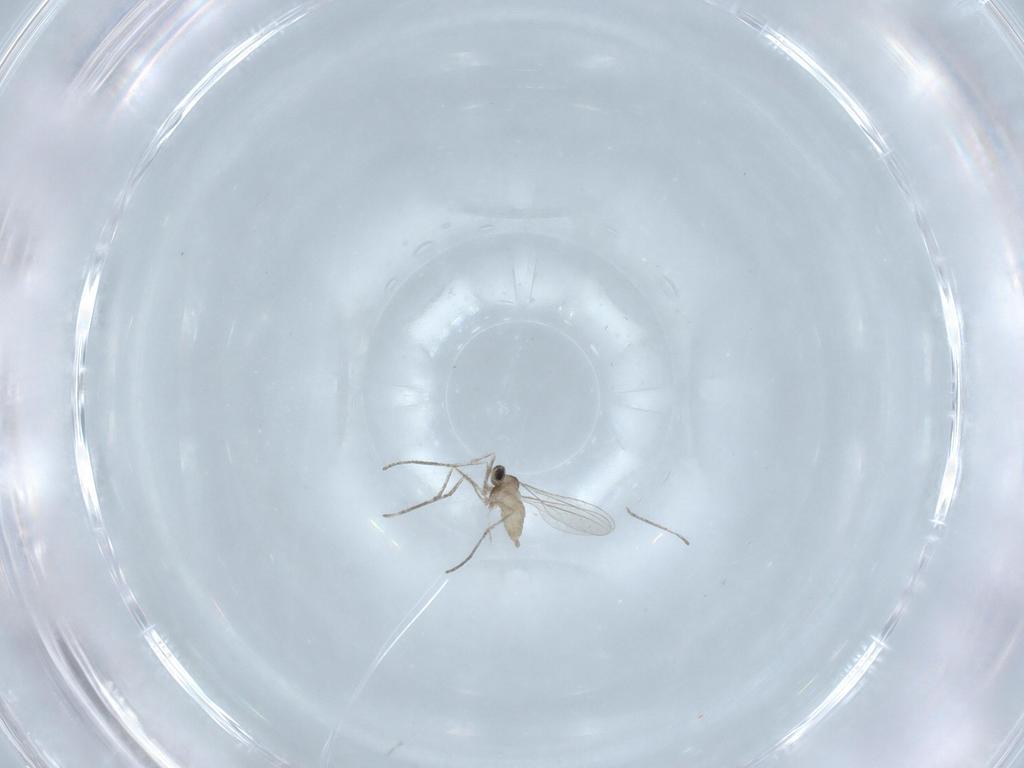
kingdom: Animalia
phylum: Arthropoda
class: Insecta
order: Diptera
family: Cecidomyiidae
